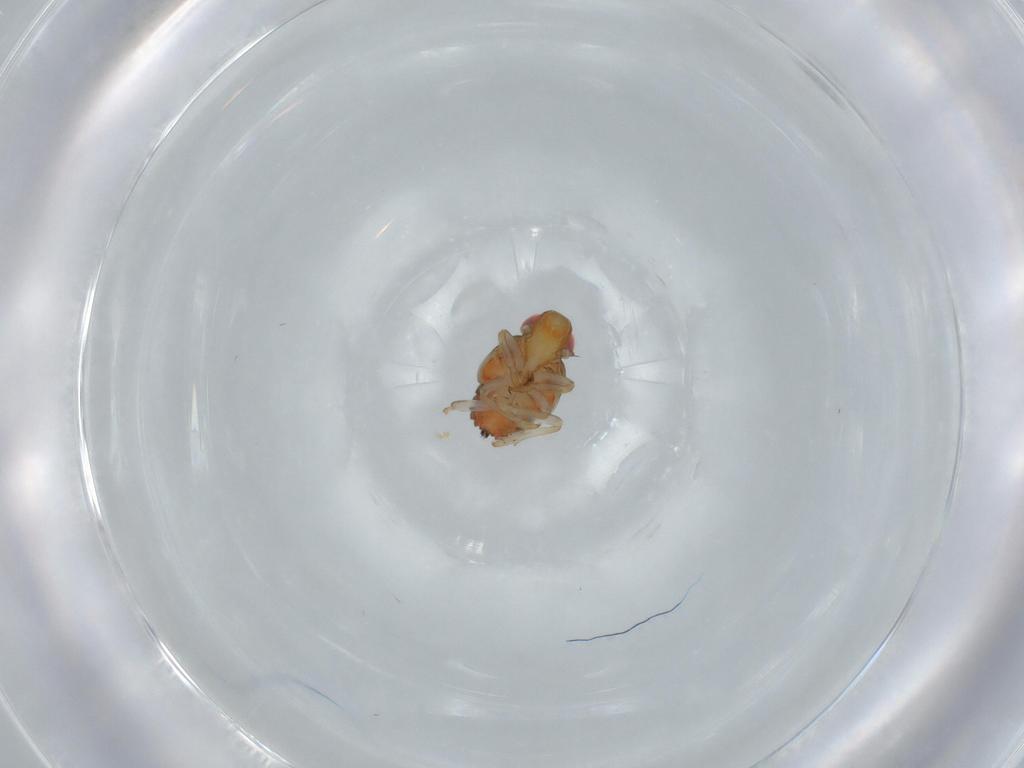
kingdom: Animalia
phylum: Arthropoda
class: Insecta
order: Hemiptera
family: Issidae
